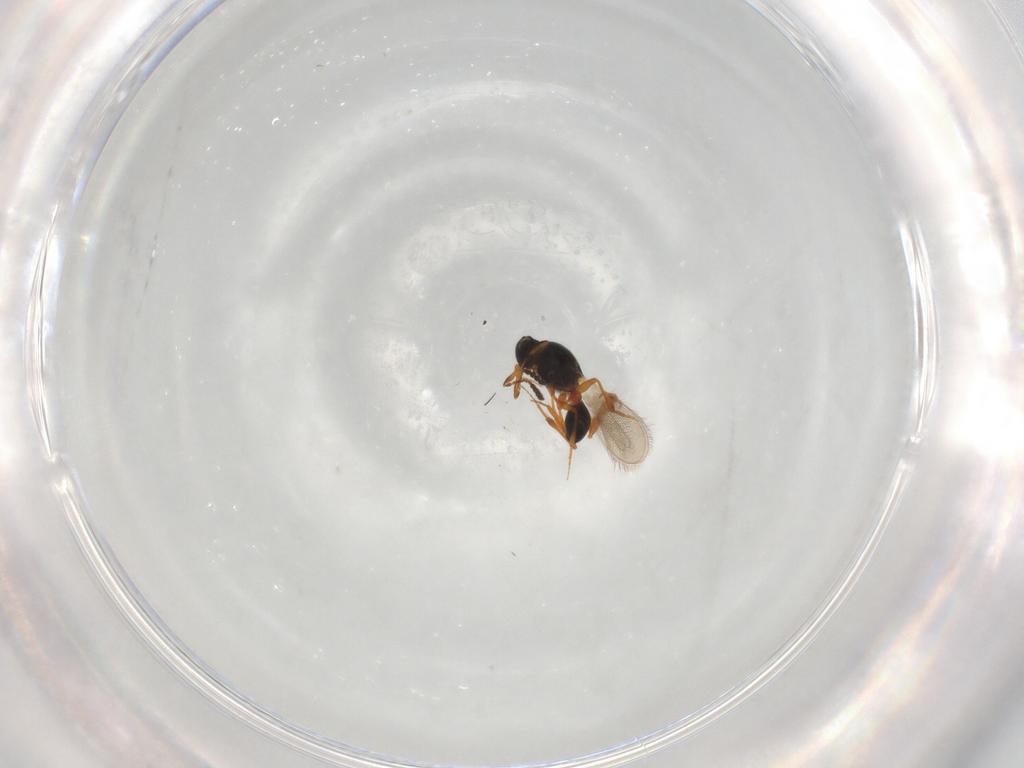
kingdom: Animalia
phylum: Arthropoda
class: Insecta
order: Hymenoptera
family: Platygastridae
